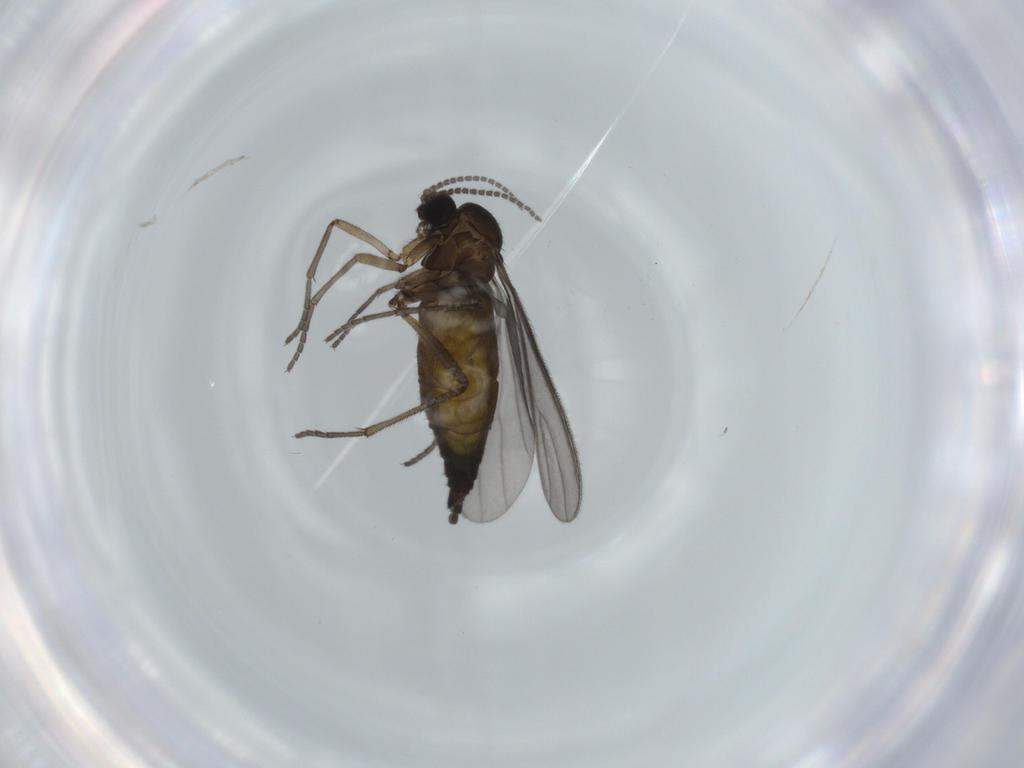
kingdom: Animalia
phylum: Arthropoda
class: Insecta
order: Diptera
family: Sciaridae
